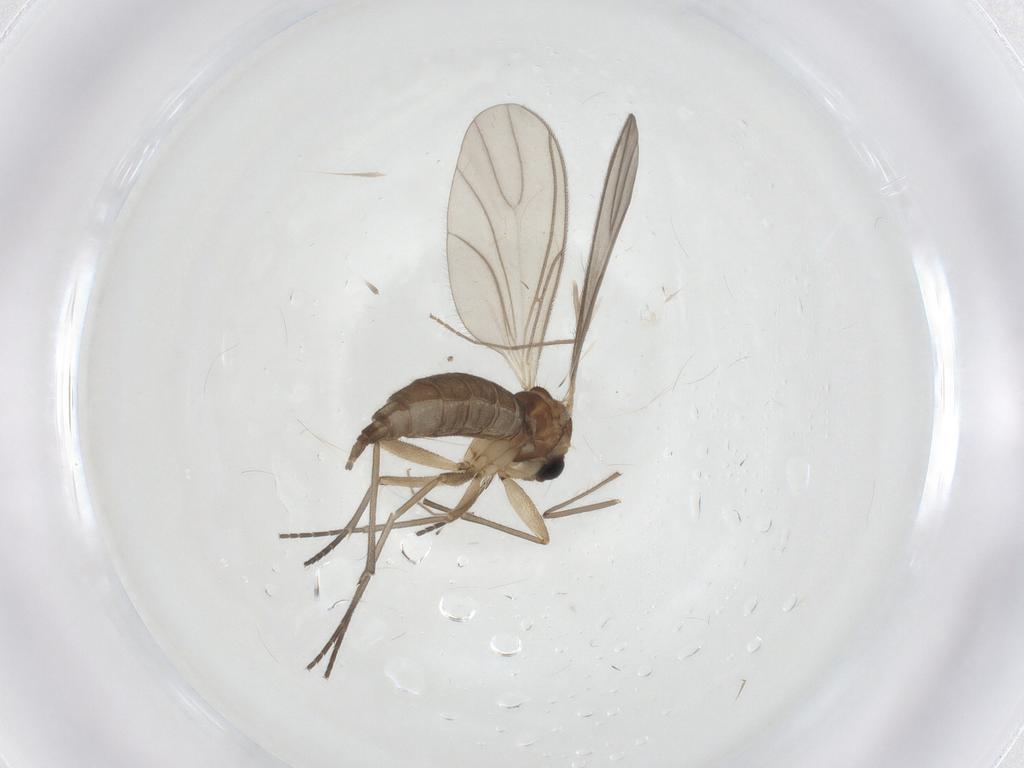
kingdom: Animalia
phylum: Arthropoda
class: Insecta
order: Diptera
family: Sciaridae
